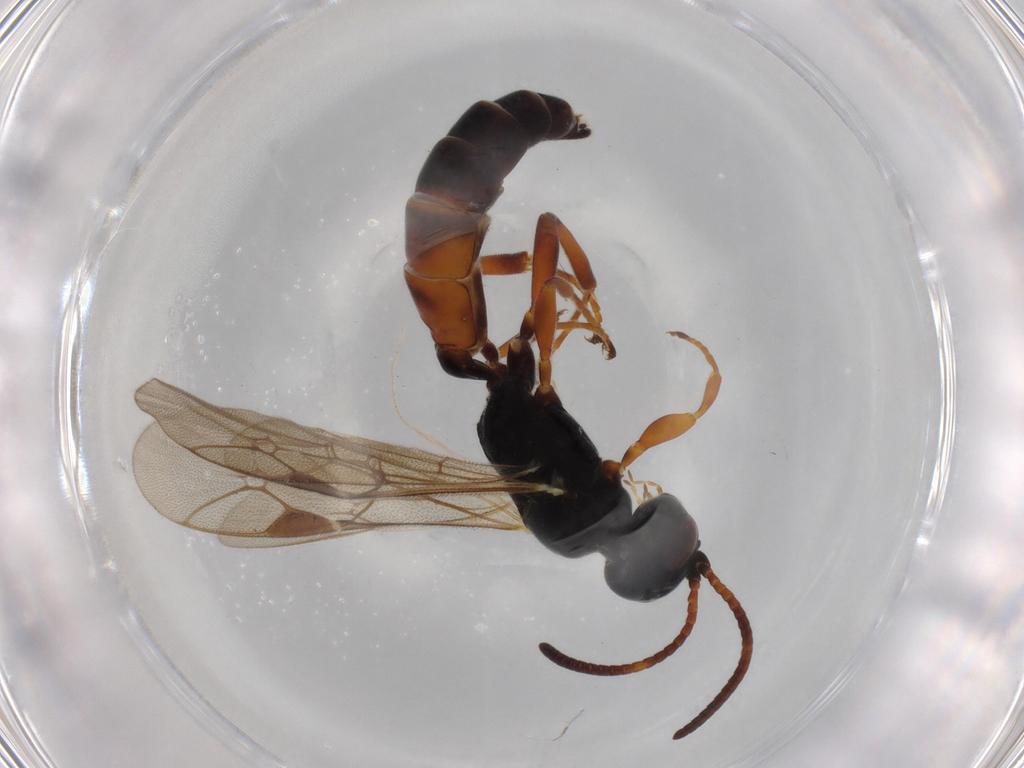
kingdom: Animalia
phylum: Arthropoda
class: Insecta
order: Hymenoptera
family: Ichneumonidae
